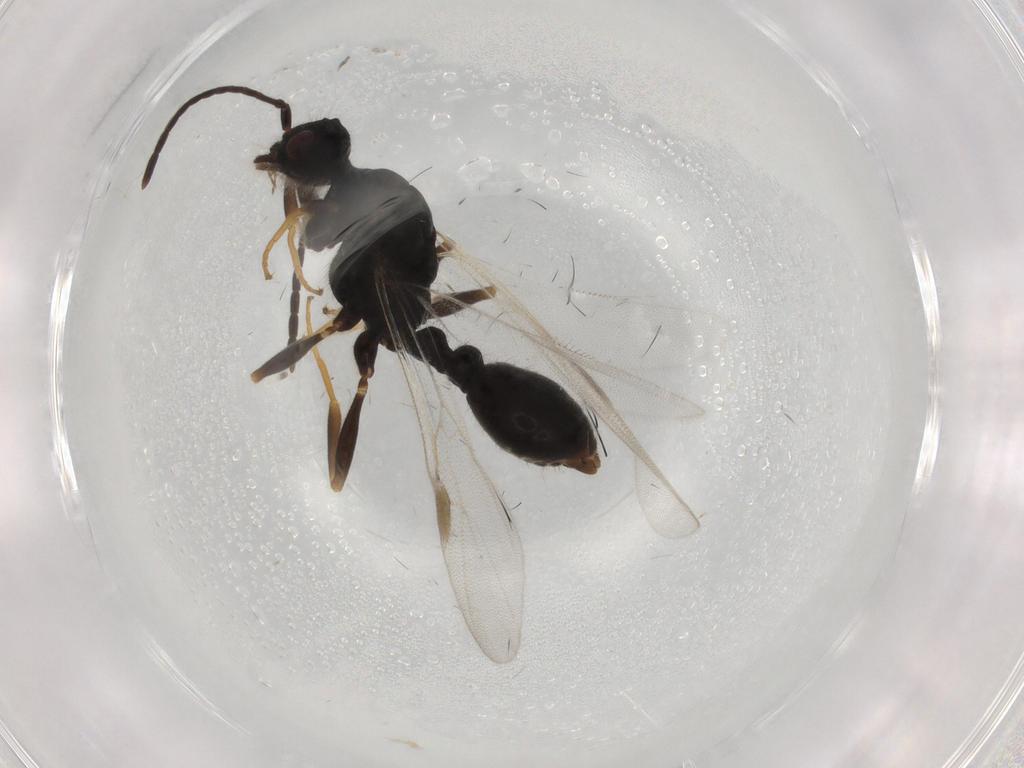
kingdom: Animalia
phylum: Arthropoda
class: Insecta
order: Hymenoptera
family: Formicidae
